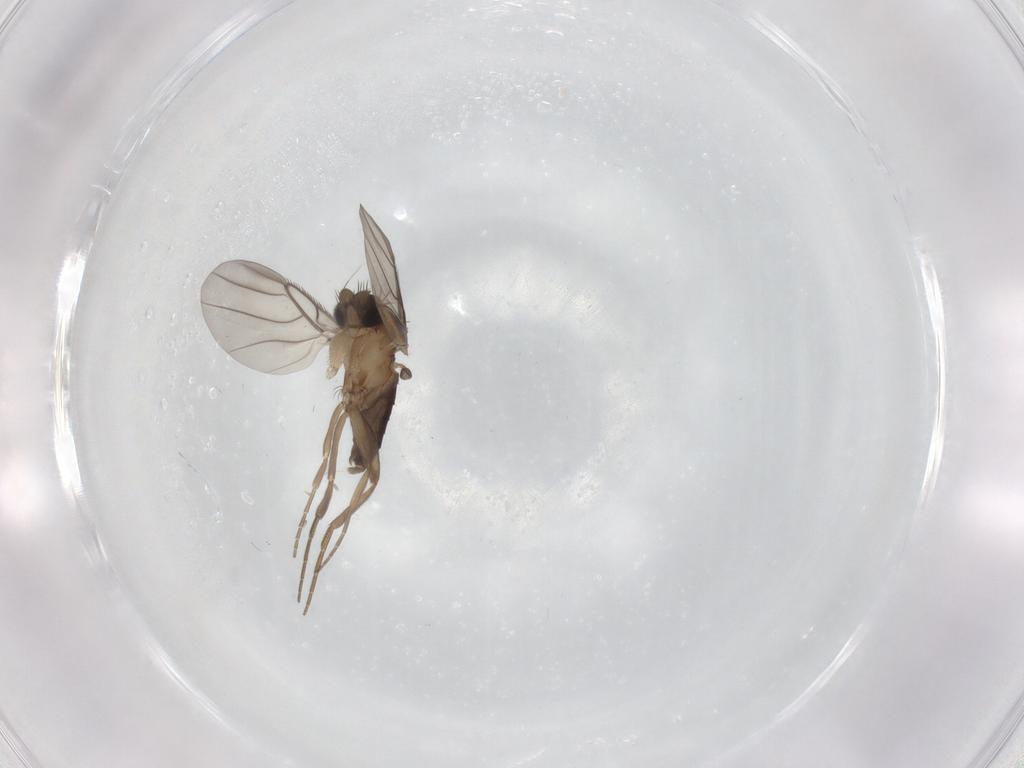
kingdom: Animalia
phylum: Arthropoda
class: Insecta
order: Diptera
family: Phoridae
